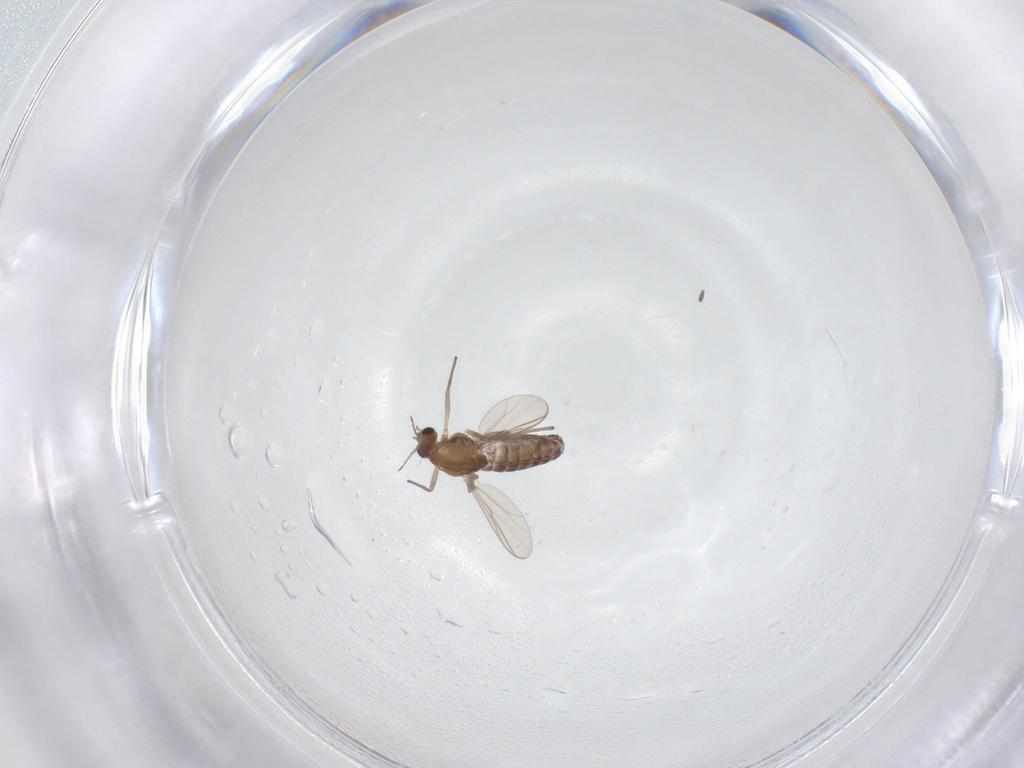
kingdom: Animalia
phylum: Arthropoda
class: Insecta
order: Diptera
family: Chironomidae
